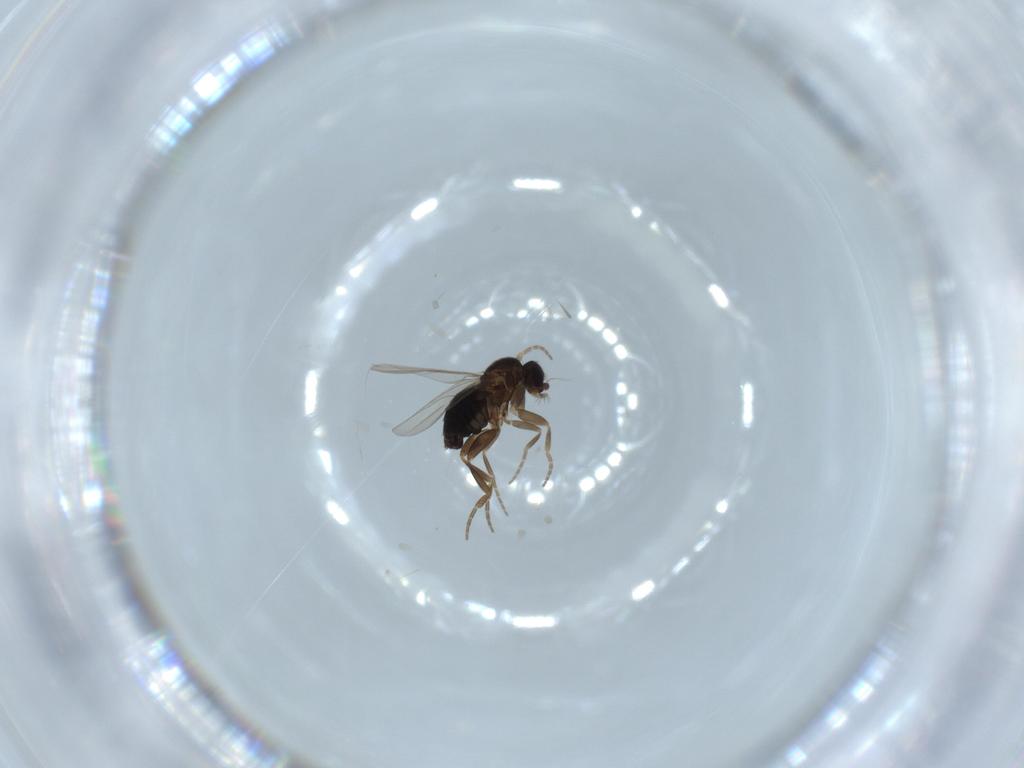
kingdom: Animalia
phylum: Arthropoda
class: Insecta
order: Diptera
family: Phoridae
